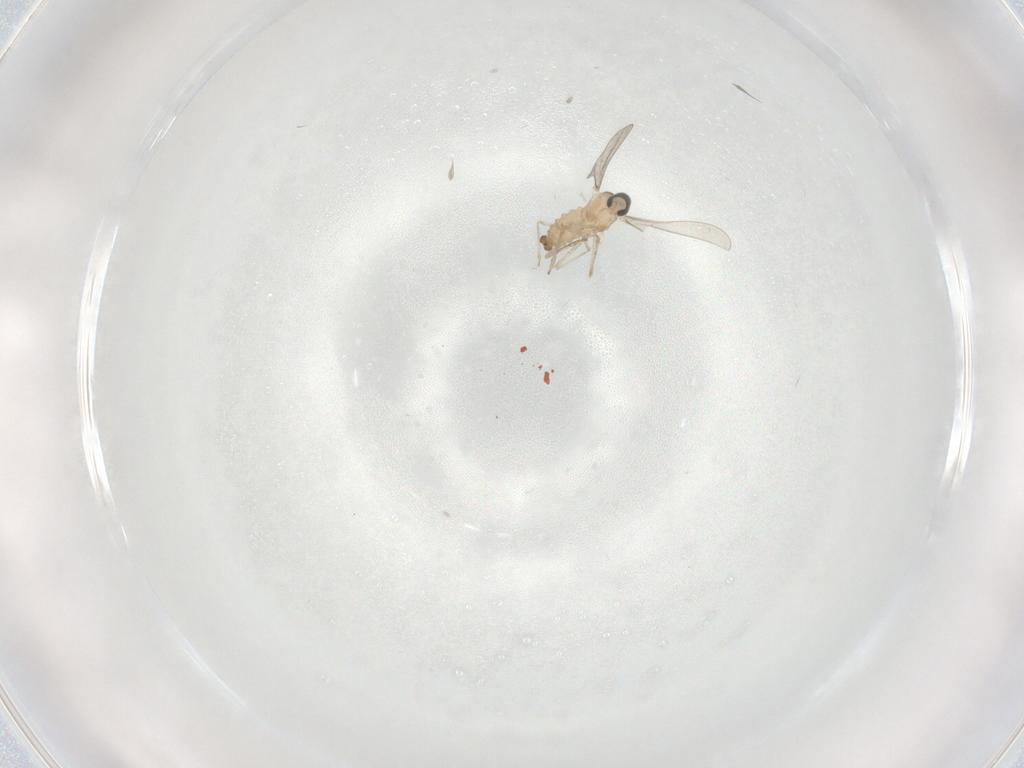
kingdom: Animalia
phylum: Arthropoda
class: Insecta
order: Diptera
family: Cecidomyiidae
